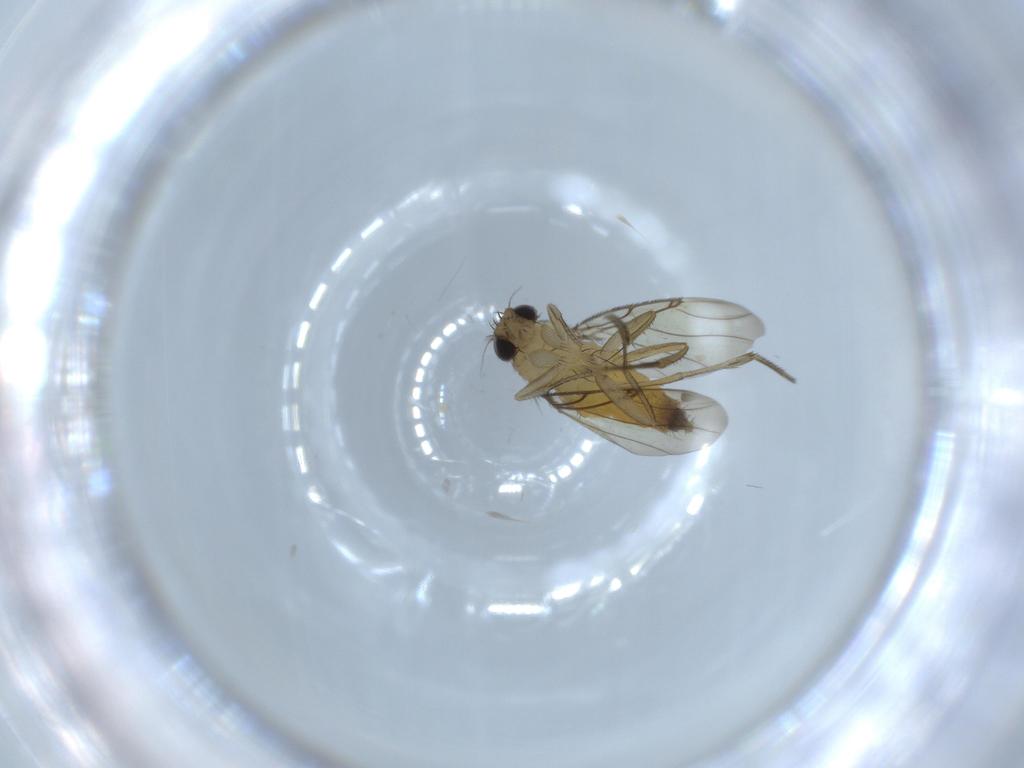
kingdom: Animalia
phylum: Arthropoda
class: Insecta
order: Diptera
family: Phoridae
